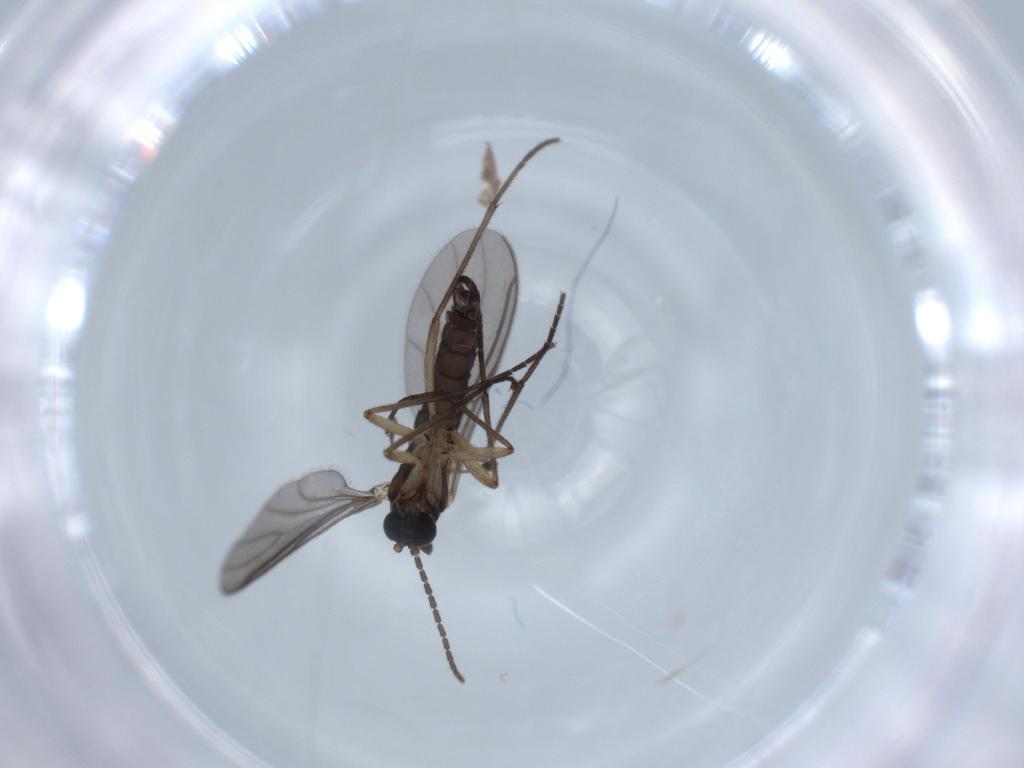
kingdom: Animalia
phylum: Arthropoda
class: Insecta
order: Diptera
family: Sciaridae
